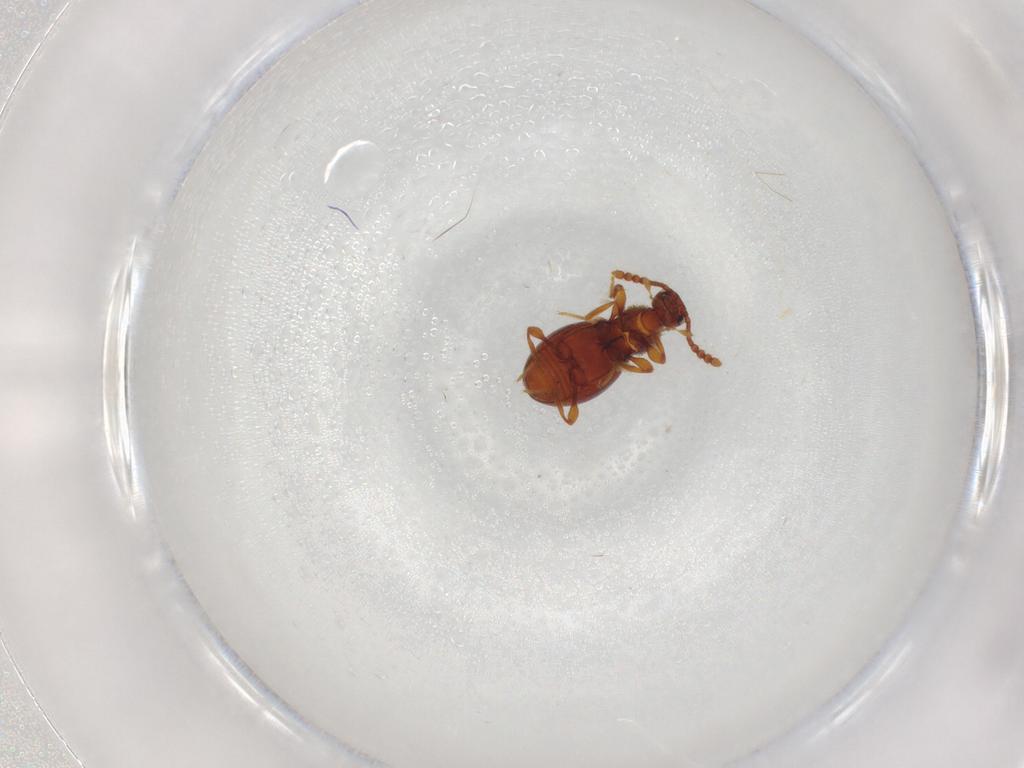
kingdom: Animalia
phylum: Arthropoda
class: Insecta
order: Coleoptera
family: Staphylinidae
